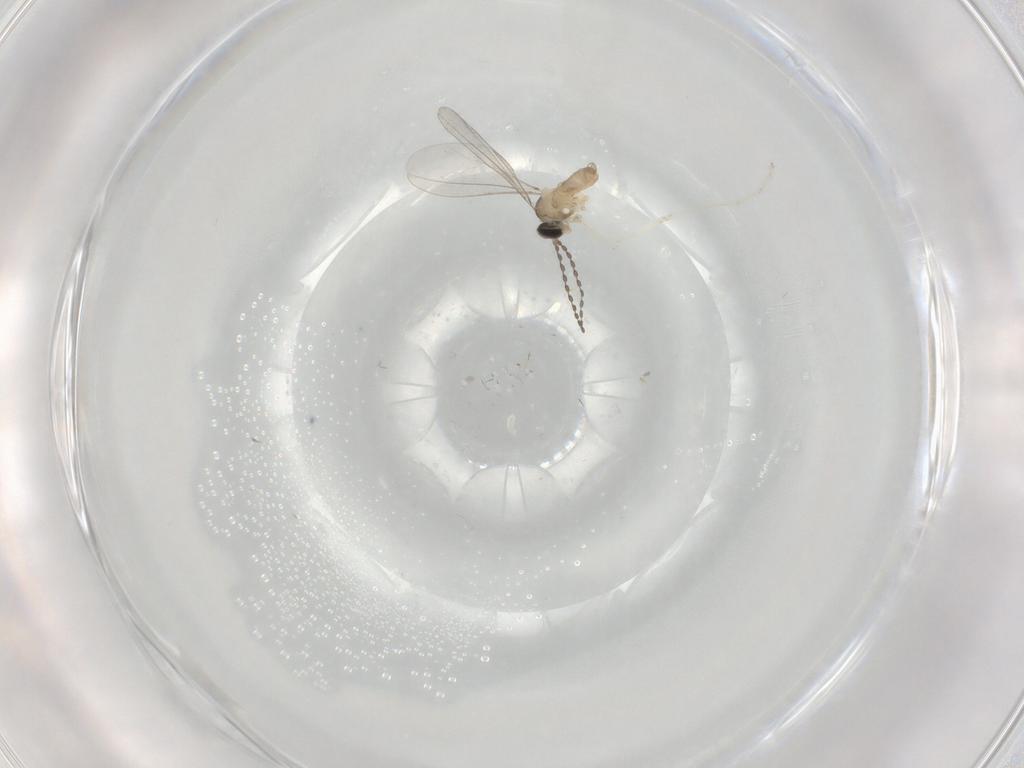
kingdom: Animalia
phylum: Arthropoda
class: Insecta
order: Diptera
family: Cecidomyiidae
